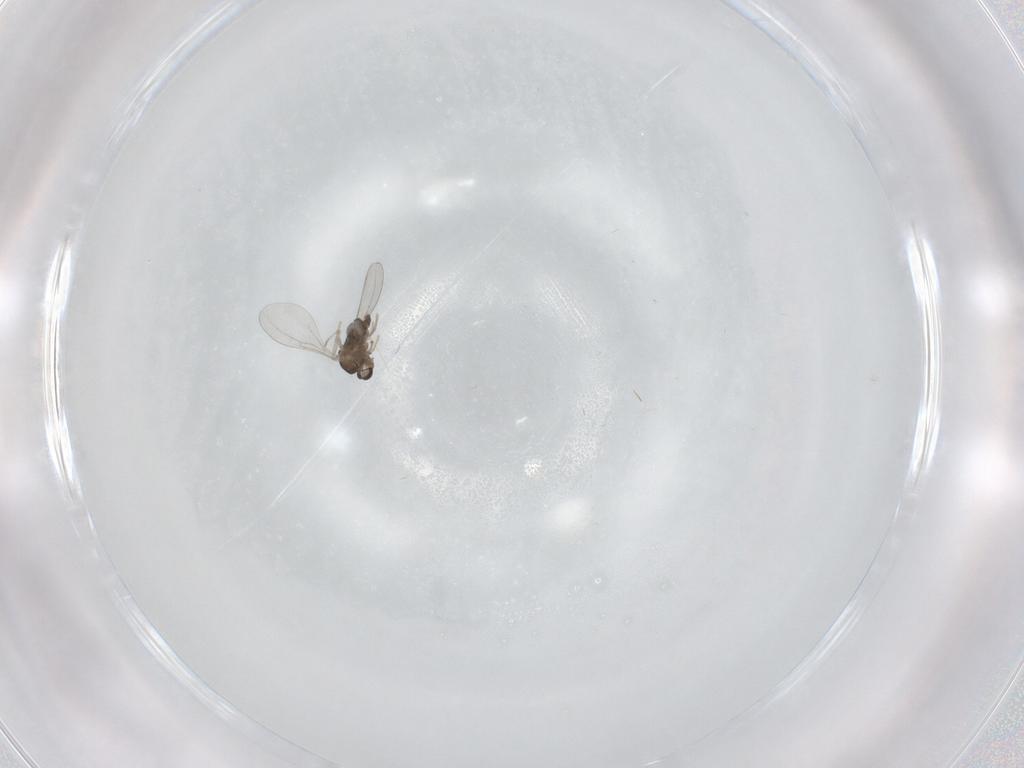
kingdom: Animalia
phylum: Arthropoda
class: Insecta
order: Diptera
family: Cecidomyiidae
